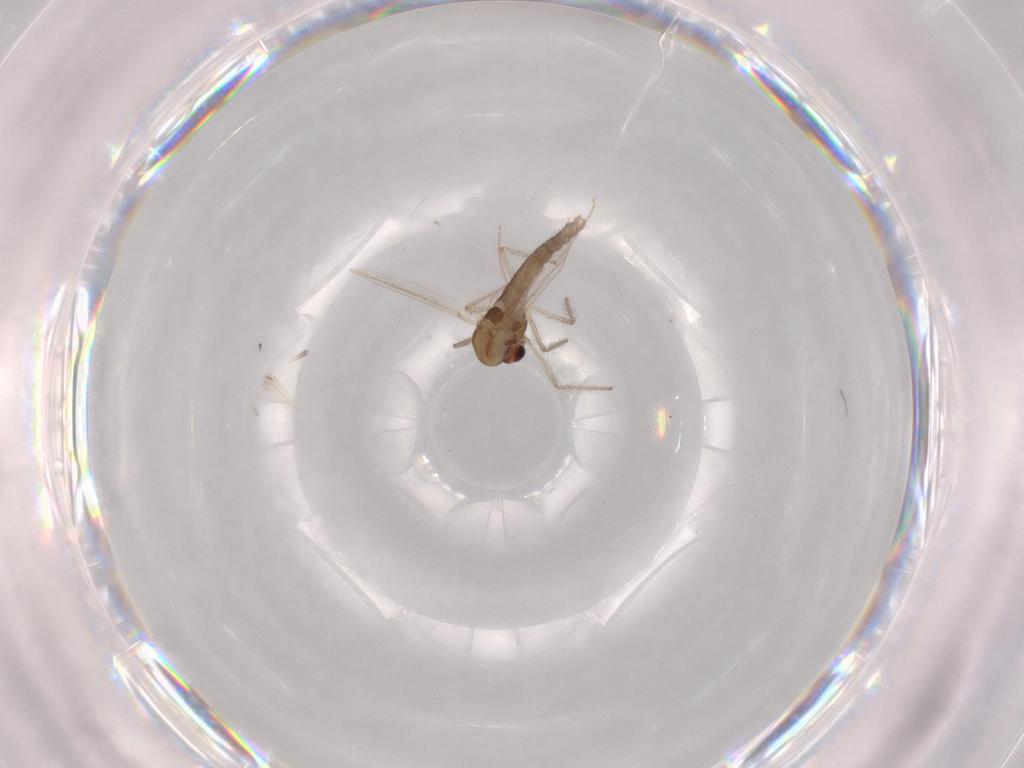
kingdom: Animalia
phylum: Arthropoda
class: Insecta
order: Diptera
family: Chironomidae
